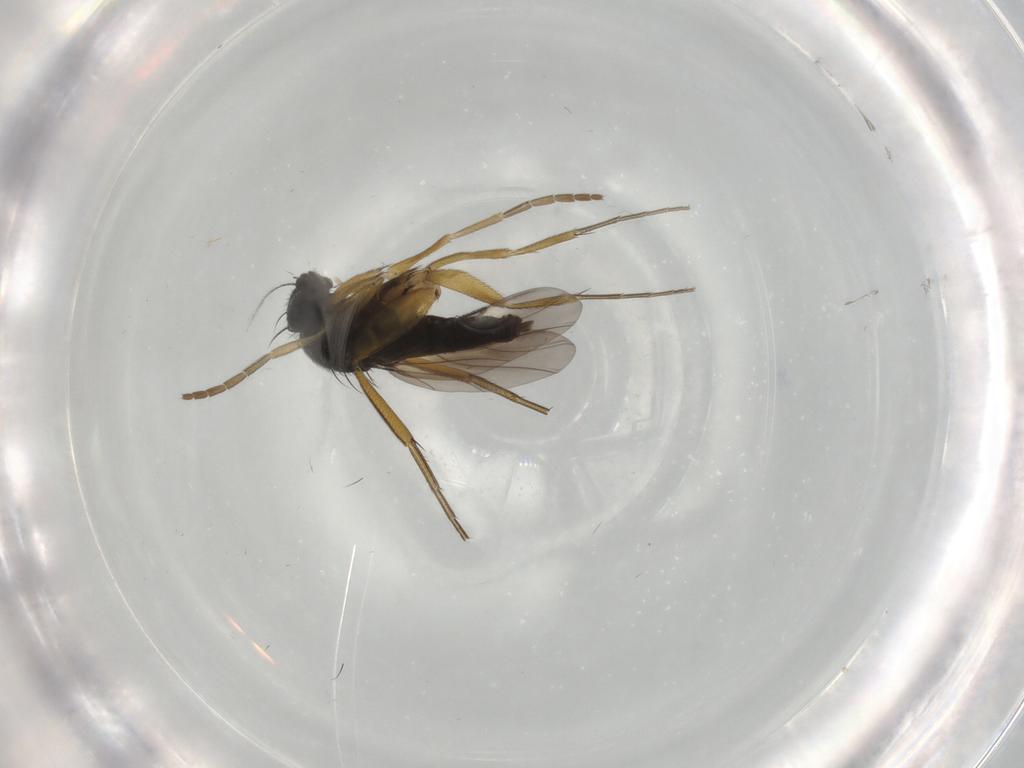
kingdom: Animalia
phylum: Arthropoda
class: Insecta
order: Diptera
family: Sciaridae
